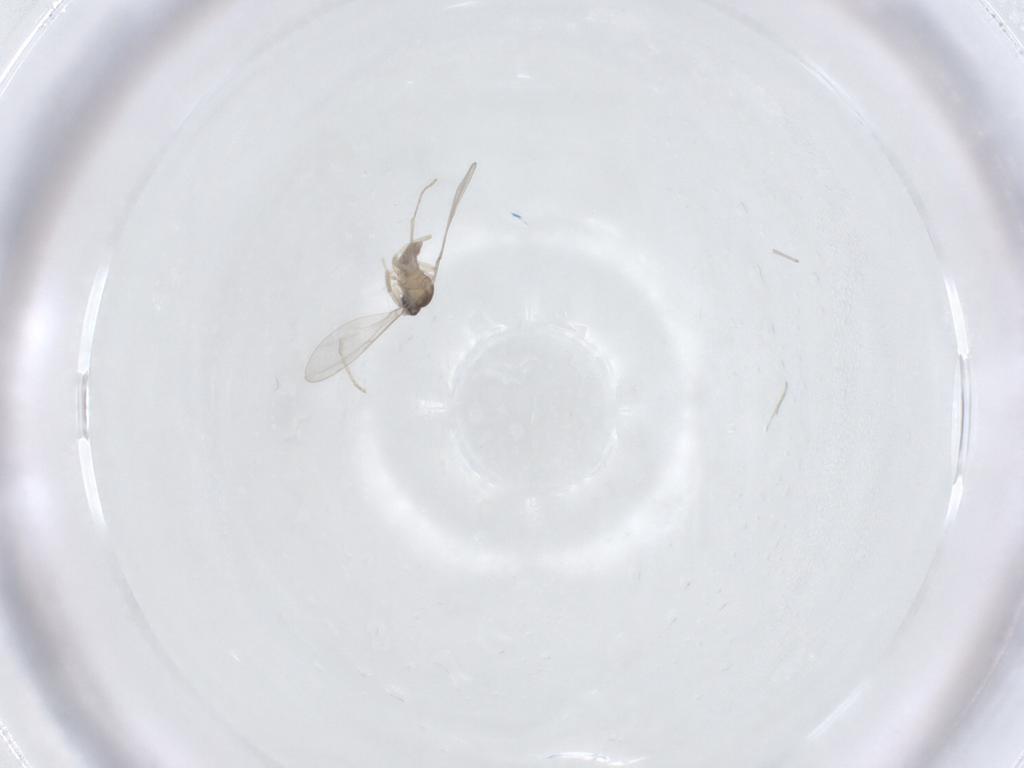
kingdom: Animalia
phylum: Arthropoda
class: Insecta
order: Diptera
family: Cecidomyiidae
